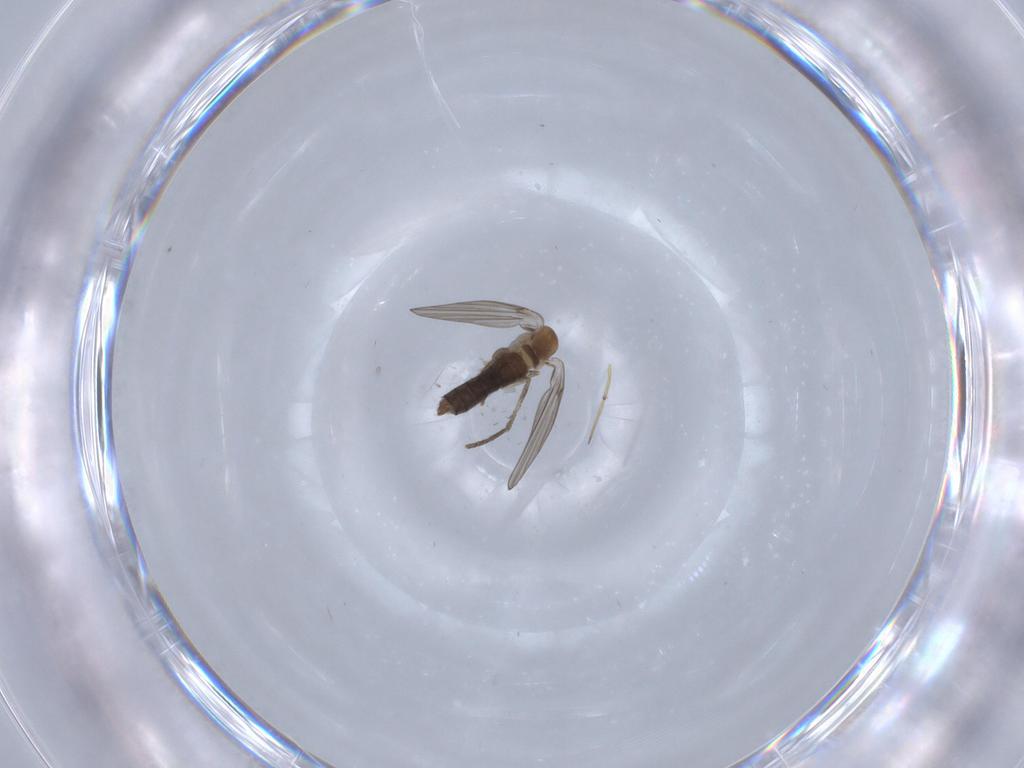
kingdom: Animalia
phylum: Arthropoda
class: Insecta
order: Diptera
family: Psychodidae
